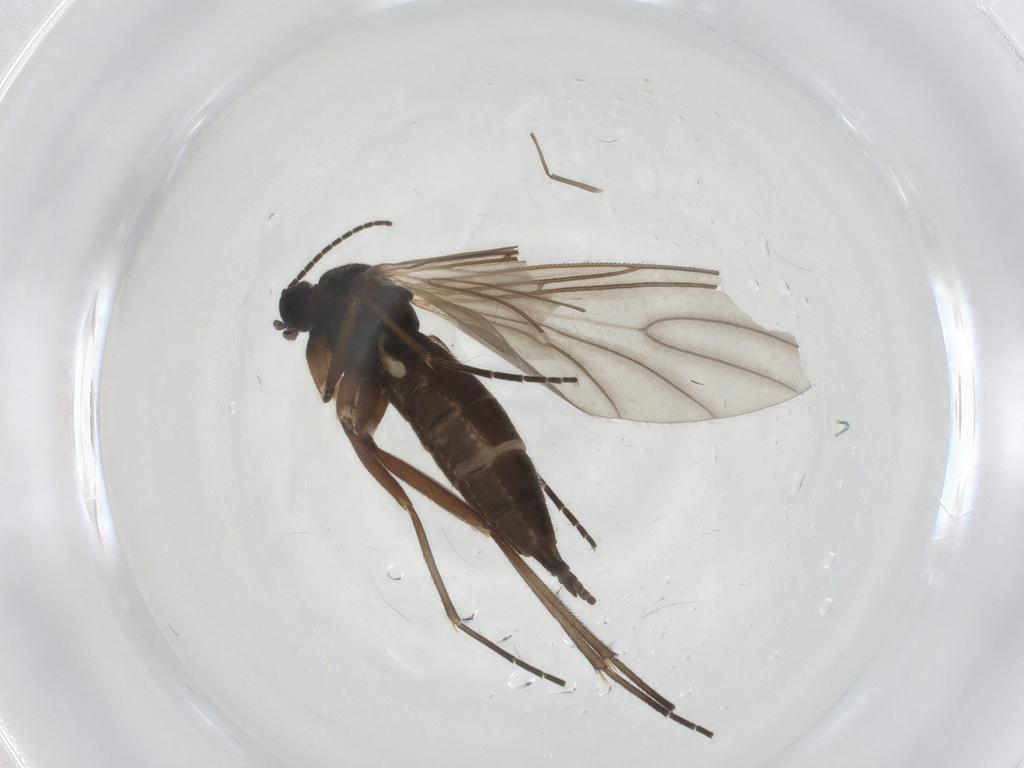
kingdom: Animalia
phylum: Arthropoda
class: Insecta
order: Diptera
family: Sciaridae
